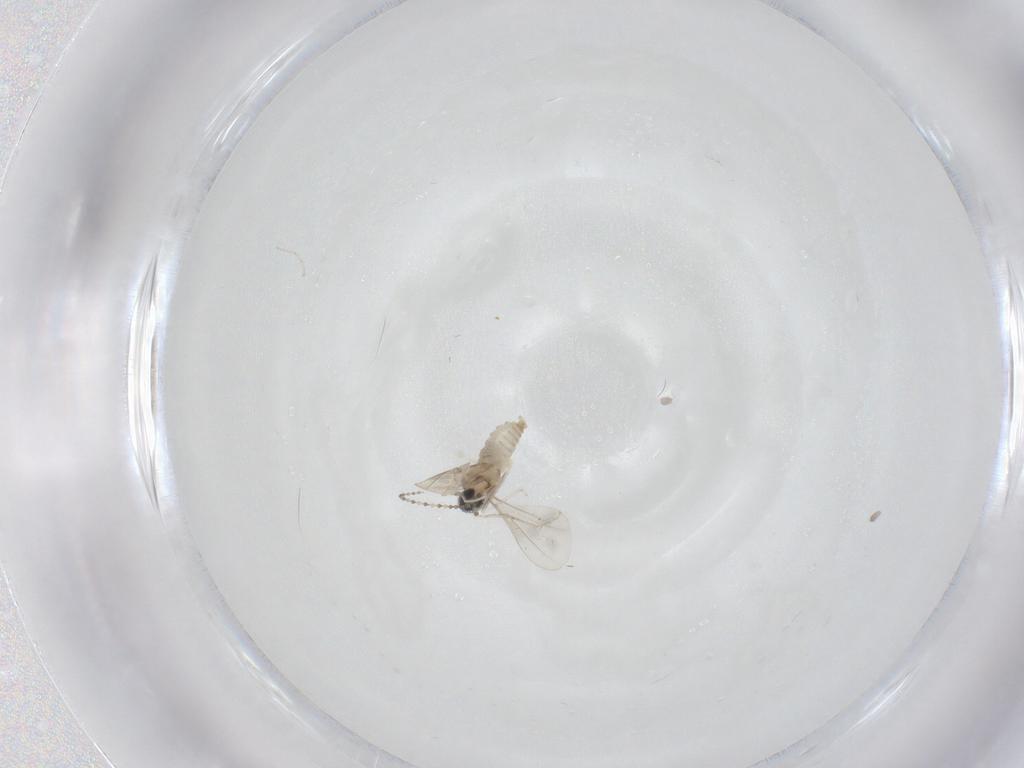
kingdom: Animalia
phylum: Arthropoda
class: Insecta
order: Diptera
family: Cecidomyiidae
